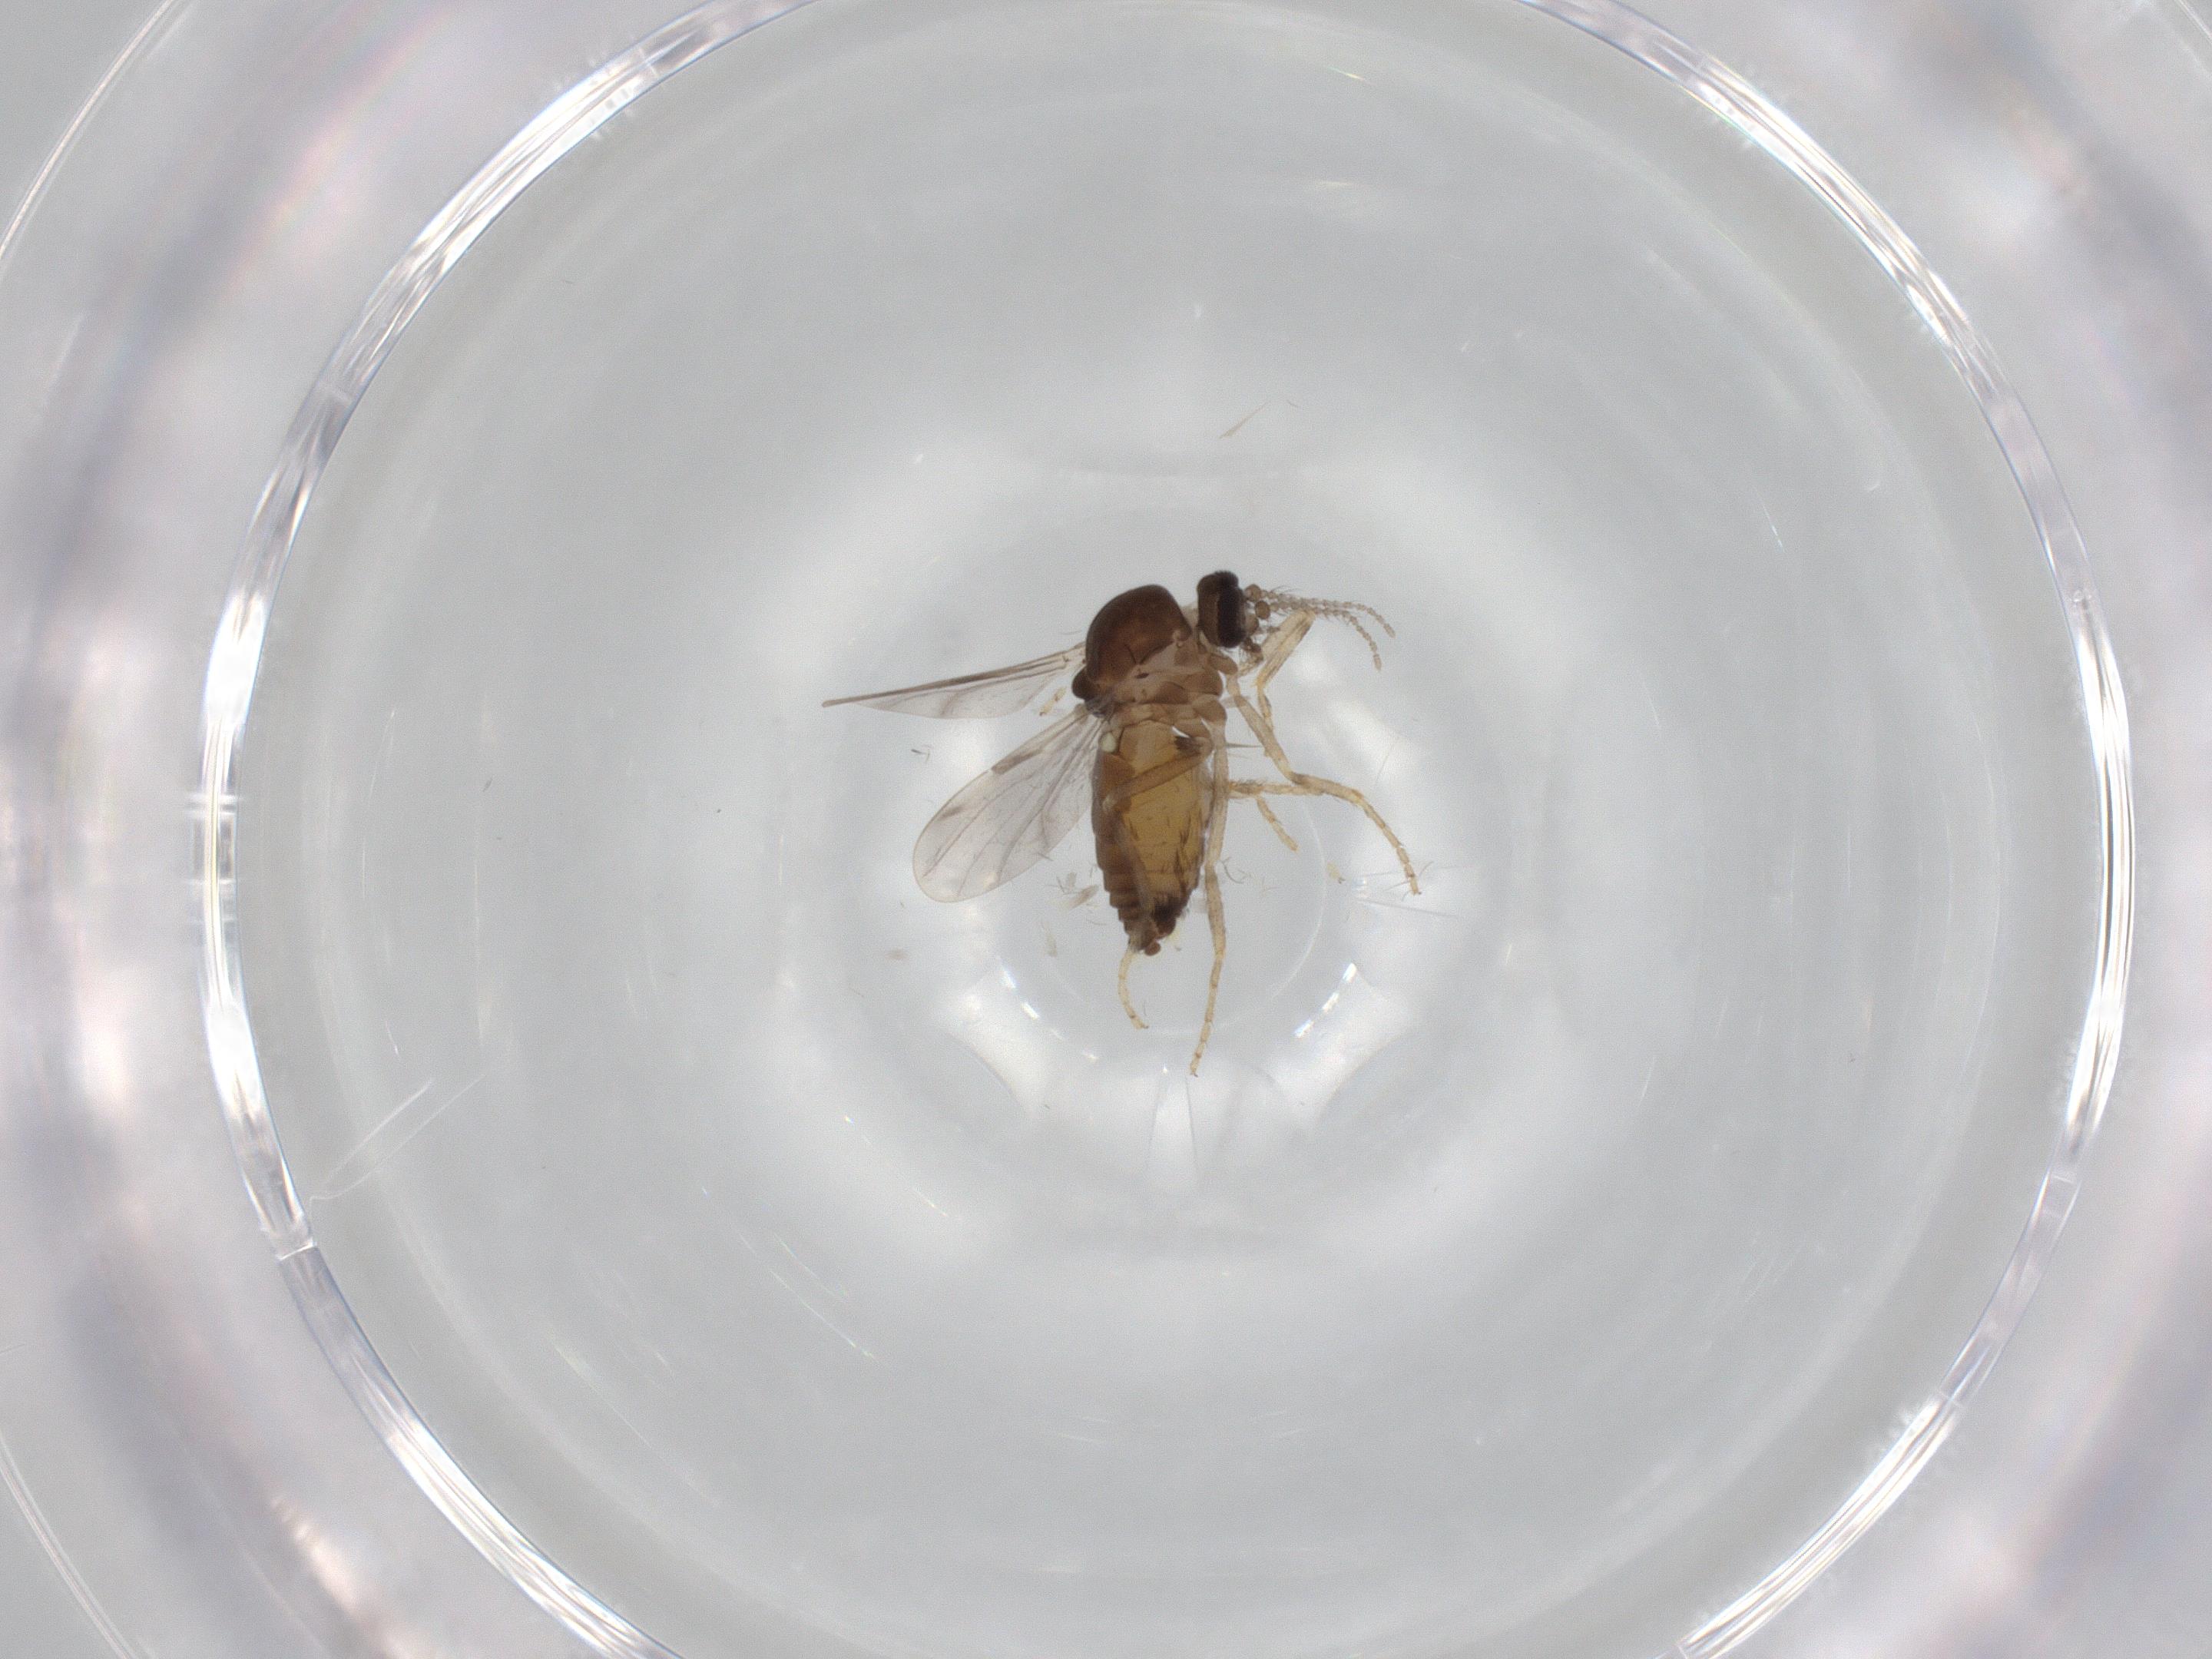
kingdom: Animalia
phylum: Arthropoda
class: Insecta
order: Diptera
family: Ceratopogonidae
